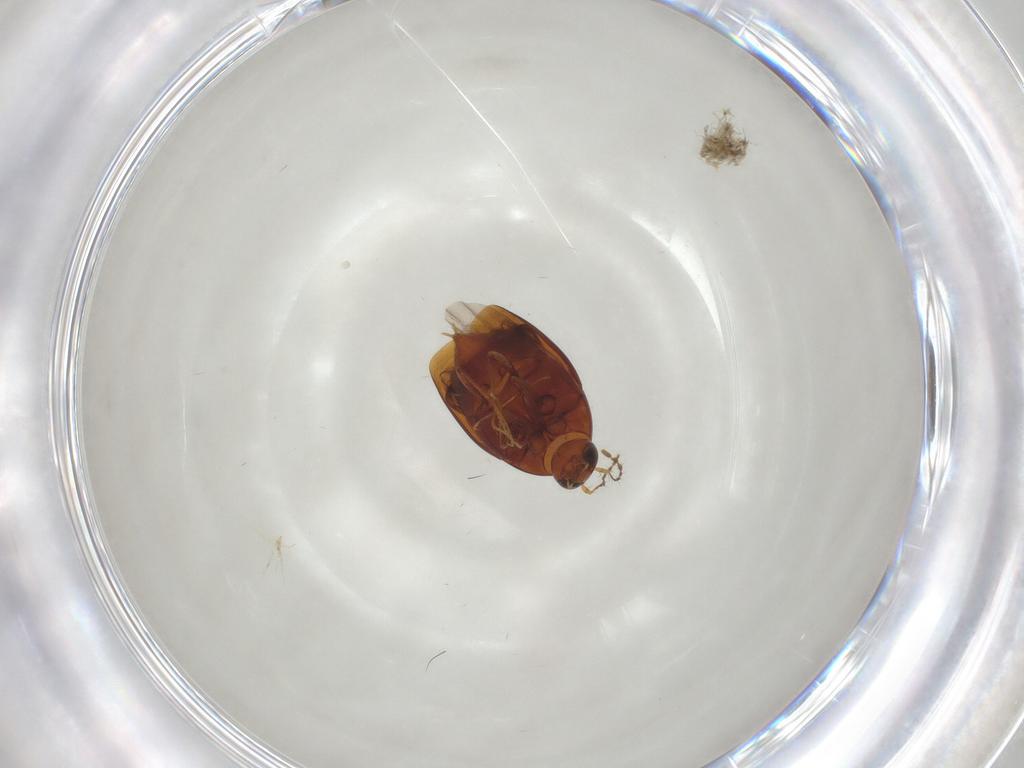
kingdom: Animalia
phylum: Arthropoda
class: Insecta
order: Coleoptera
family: Staphylinidae
